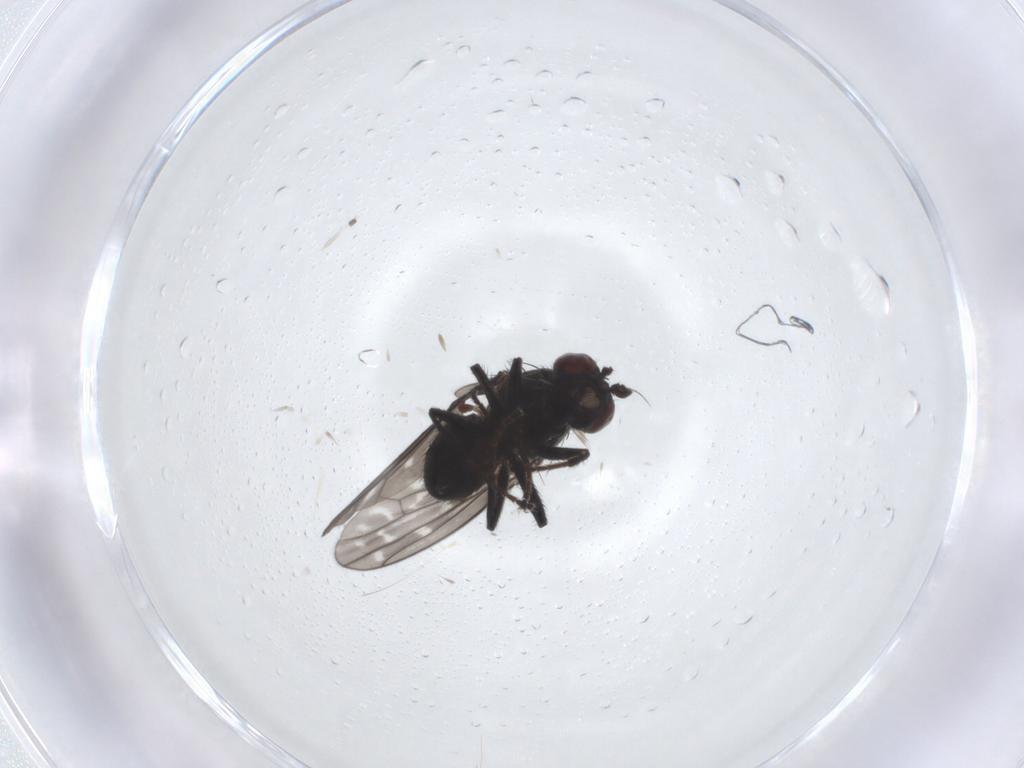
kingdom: Animalia
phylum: Arthropoda
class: Insecta
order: Diptera
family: Ephydridae
